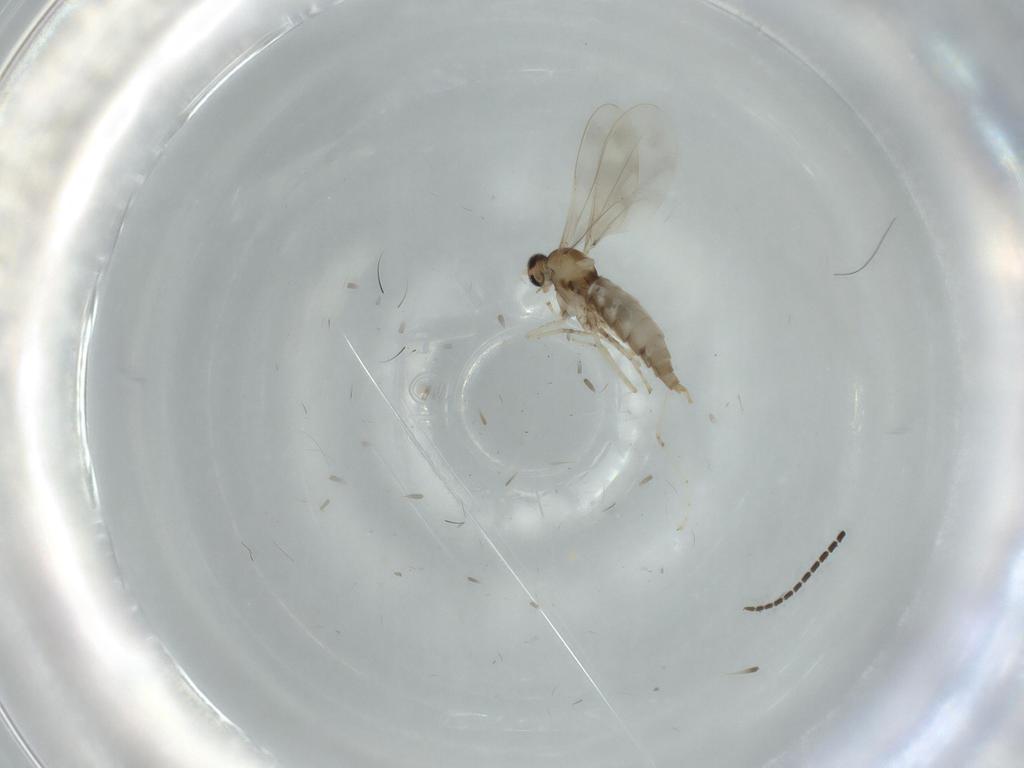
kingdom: Animalia
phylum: Arthropoda
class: Insecta
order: Diptera
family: Cecidomyiidae
